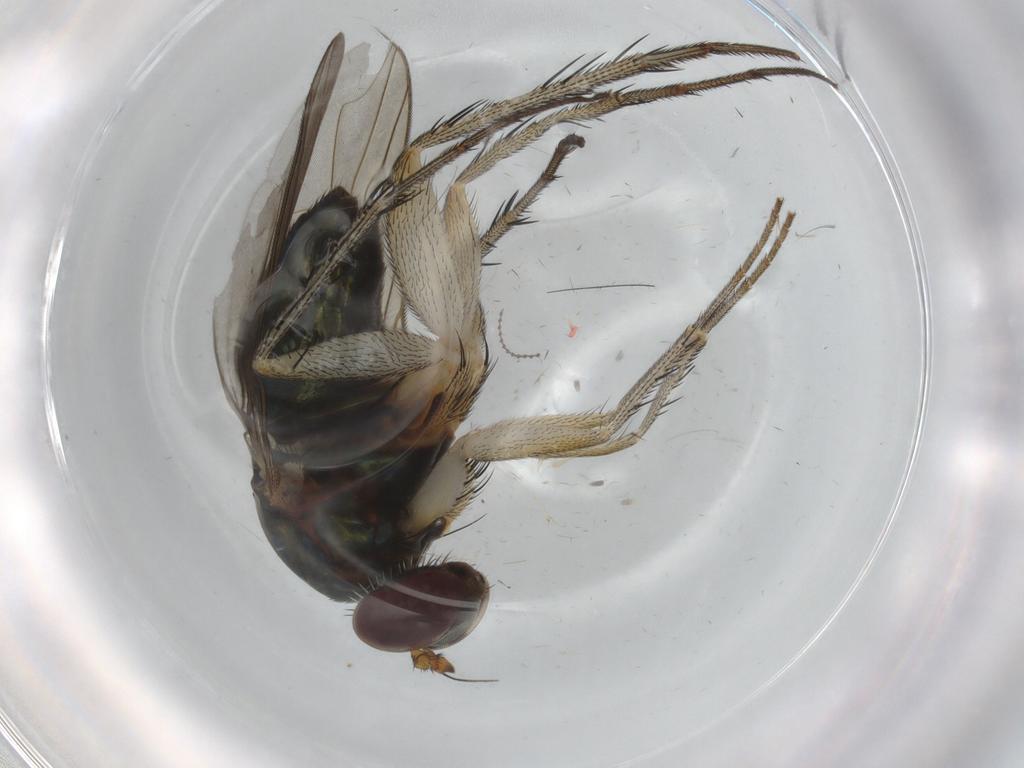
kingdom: Animalia
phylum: Arthropoda
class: Insecta
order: Diptera
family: Dolichopodidae
